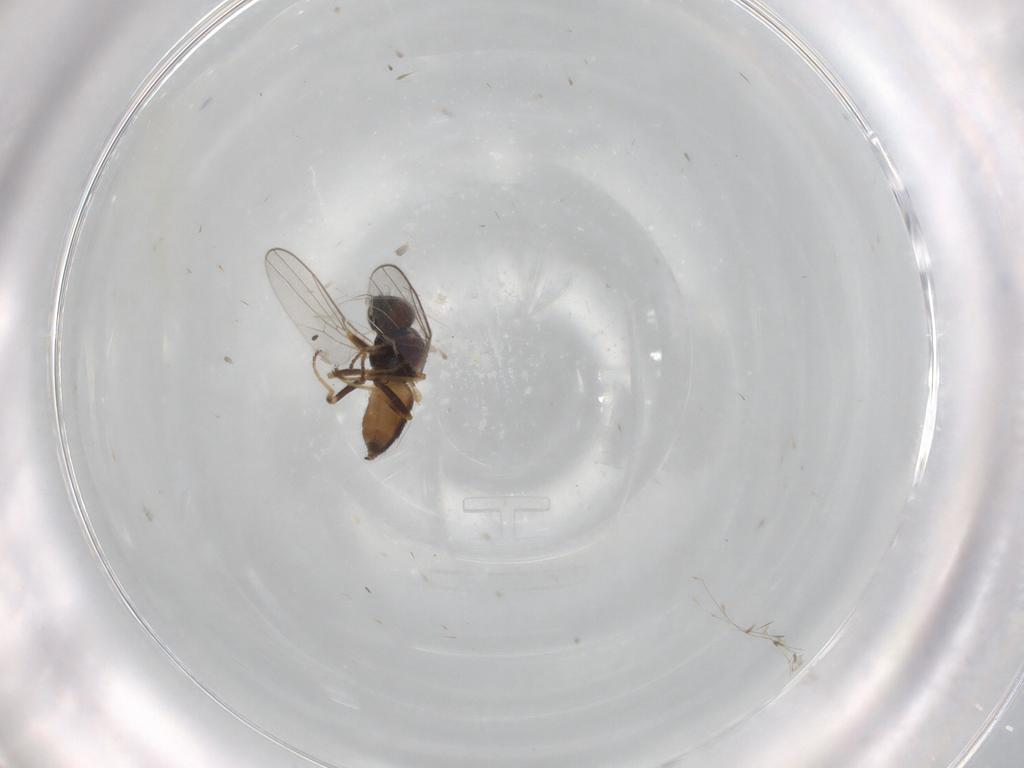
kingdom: Animalia
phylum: Arthropoda
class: Insecta
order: Diptera
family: Chloropidae
